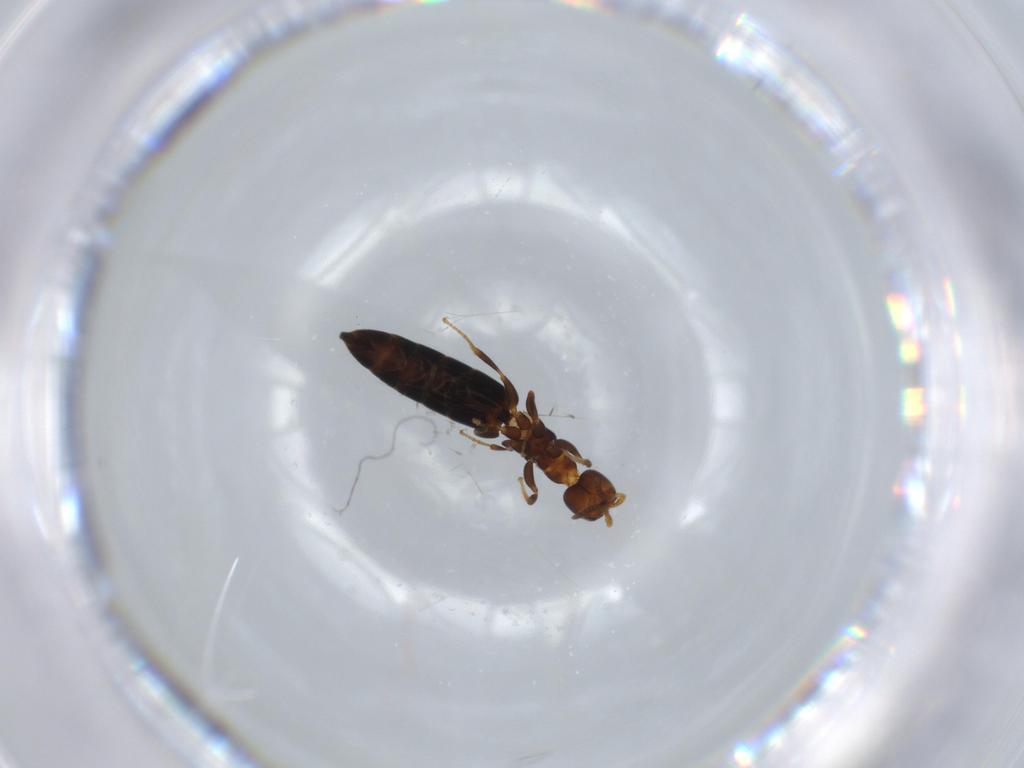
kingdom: Animalia
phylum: Arthropoda
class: Insecta
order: Hymenoptera
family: Bethylidae
